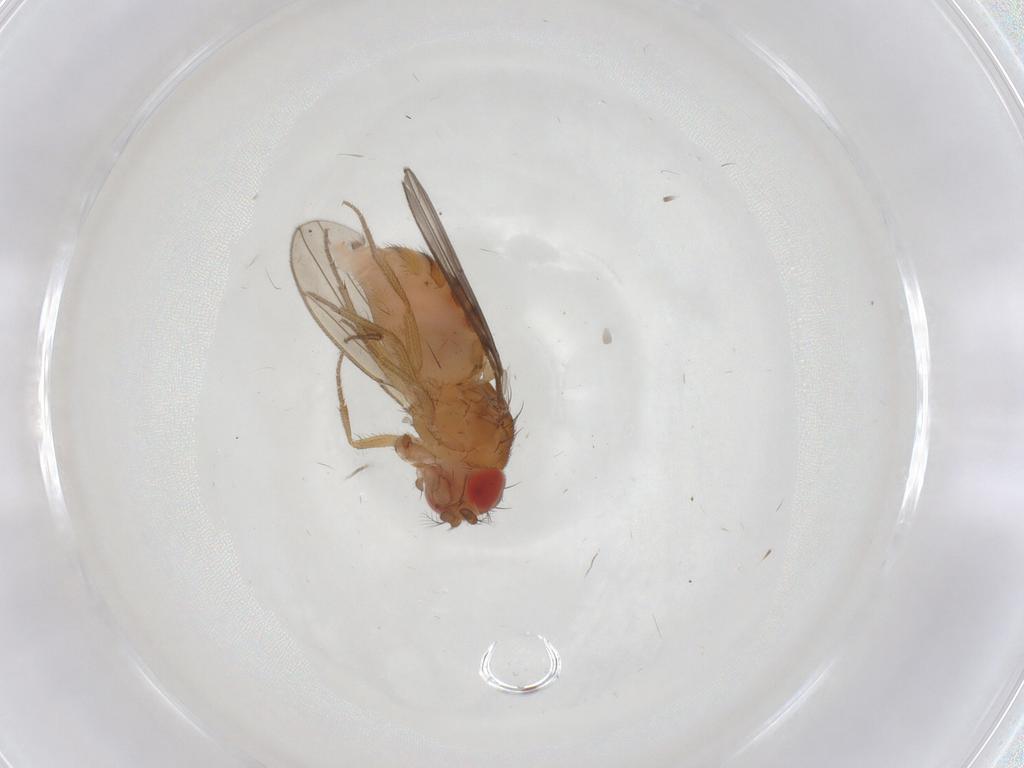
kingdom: Animalia
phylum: Arthropoda
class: Insecta
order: Diptera
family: Drosophilidae
